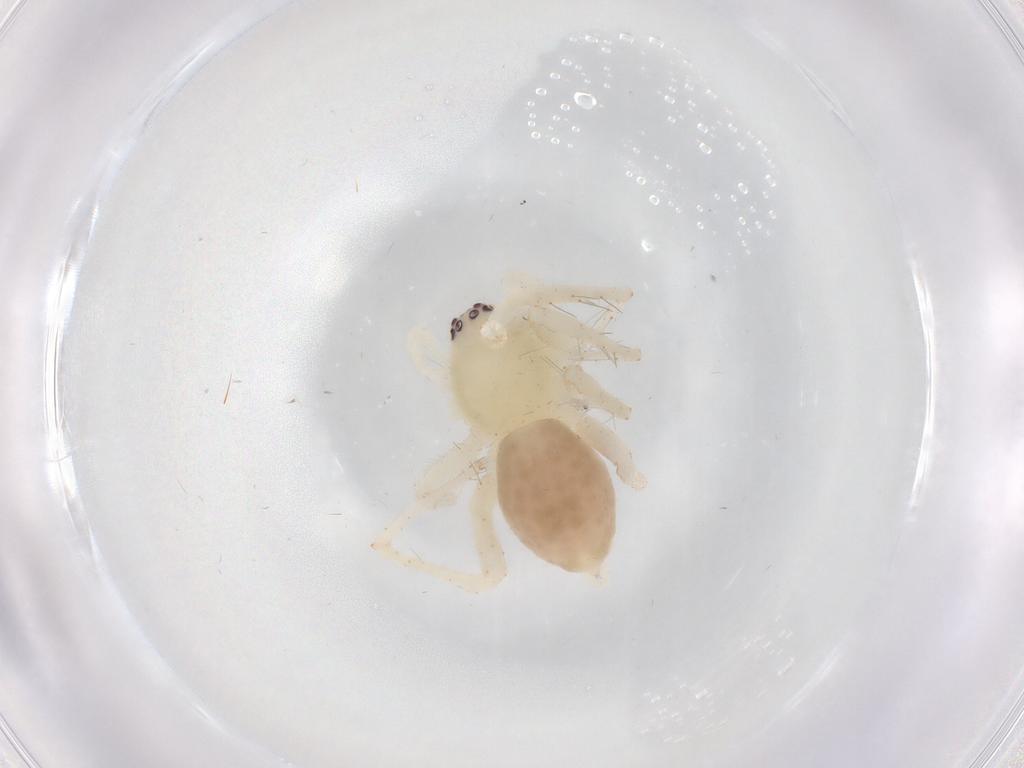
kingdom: Animalia
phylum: Arthropoda
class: Arachnida
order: Araneae
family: Anyphaenidae
